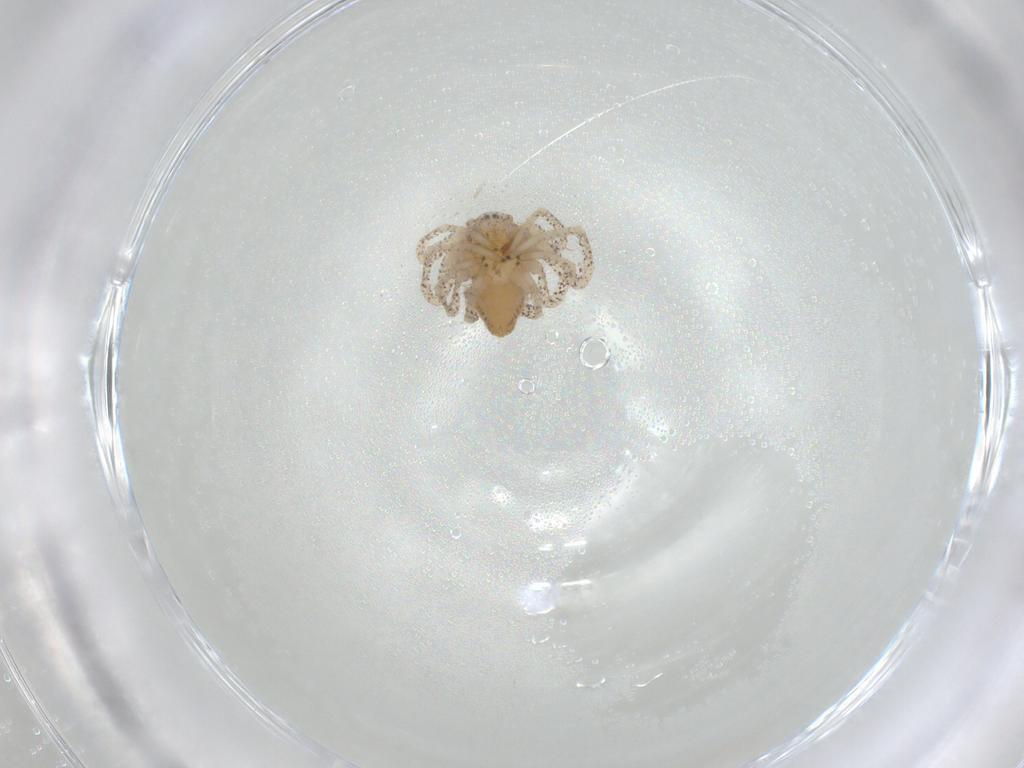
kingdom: Animalia
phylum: Arthropoda
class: Arachnida
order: Araneae
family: Philodromidae
